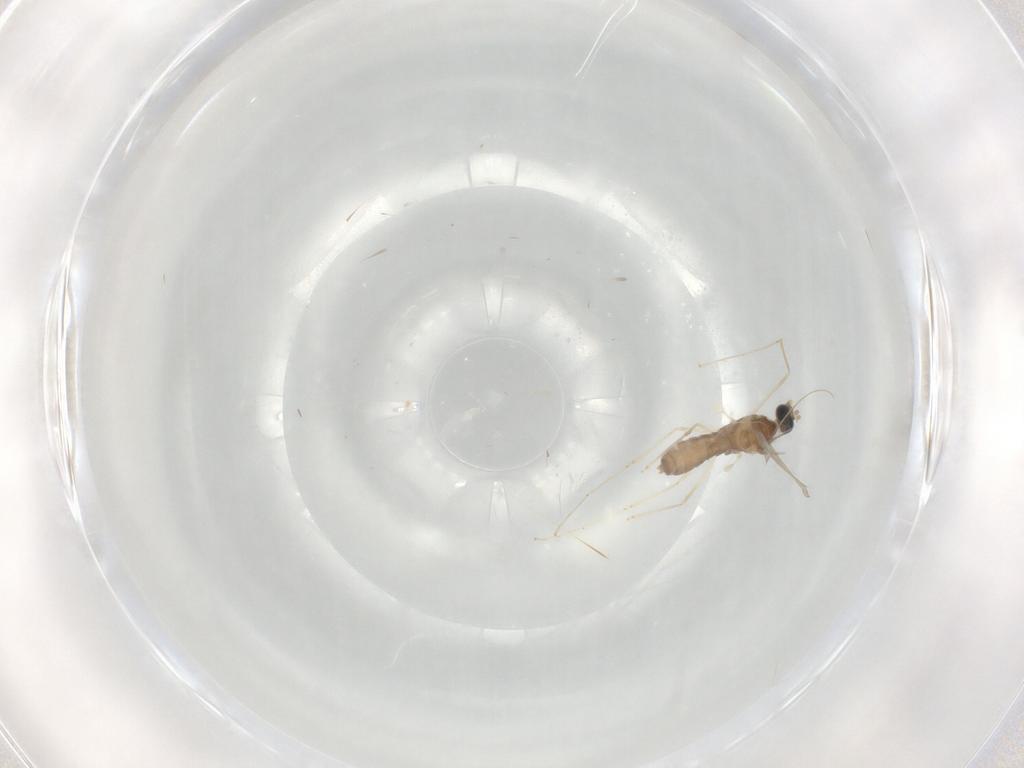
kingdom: Animalia
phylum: Arthropoda
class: Insecta
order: Diptera
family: Cecidomyiidae
